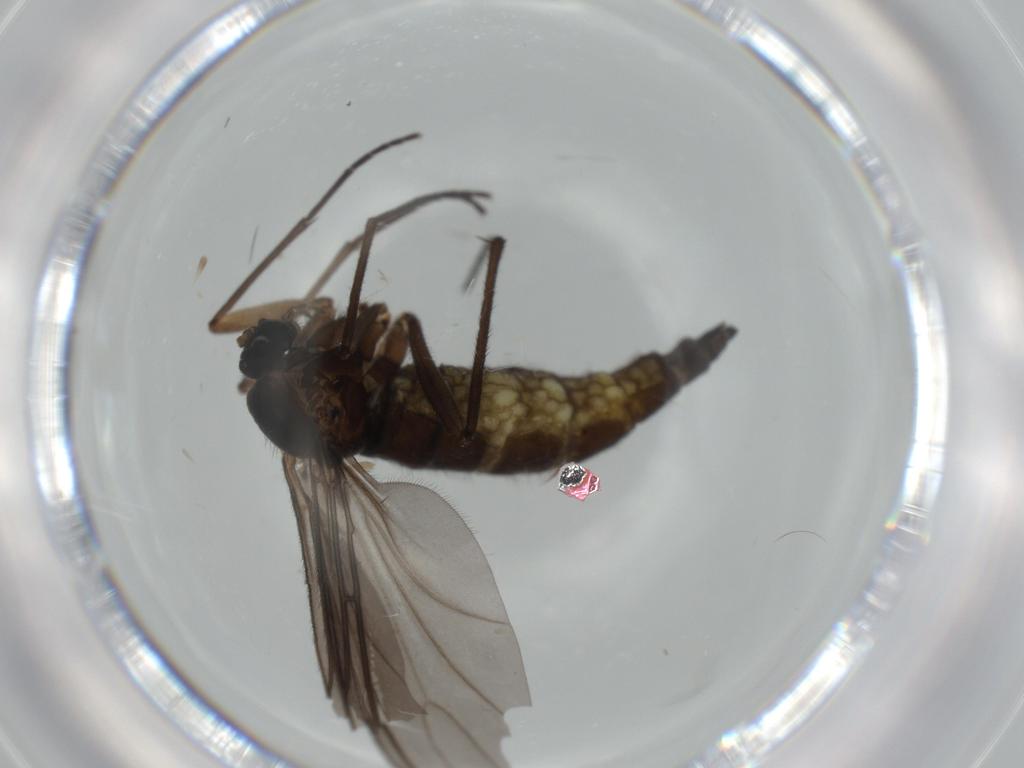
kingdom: Animalia
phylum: Arthropoda
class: Insecta
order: Diptera
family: Sciaridae
